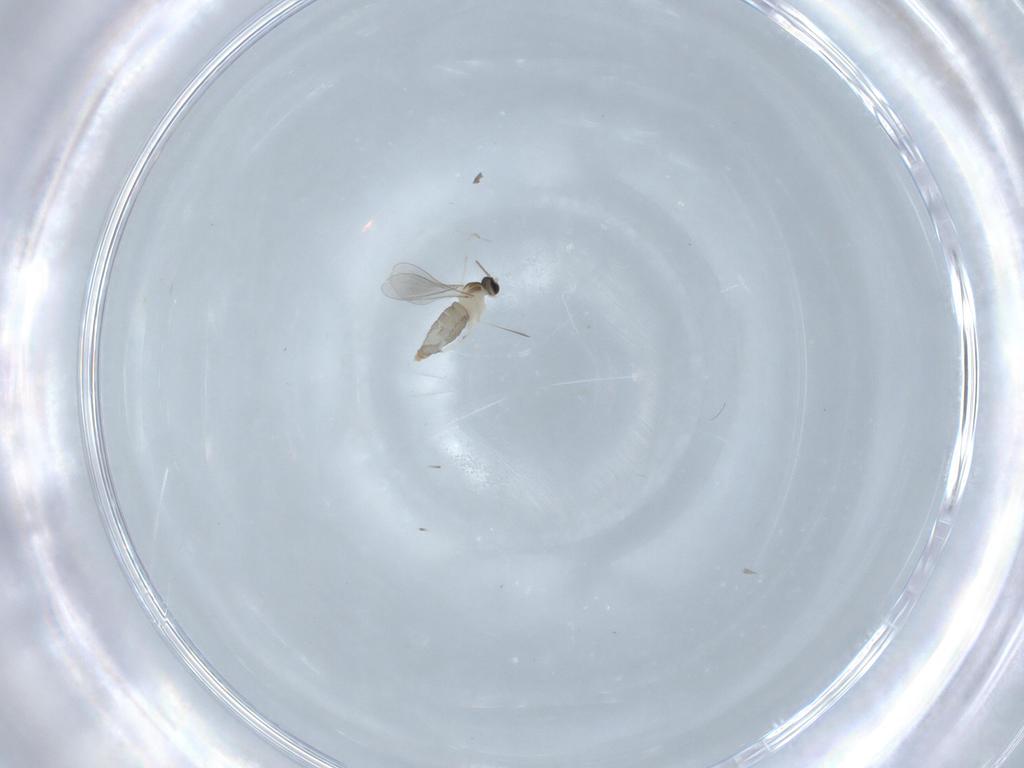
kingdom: Animalia
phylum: Arthropoda
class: Insecta
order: Diptera
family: Cecidomyiidae
